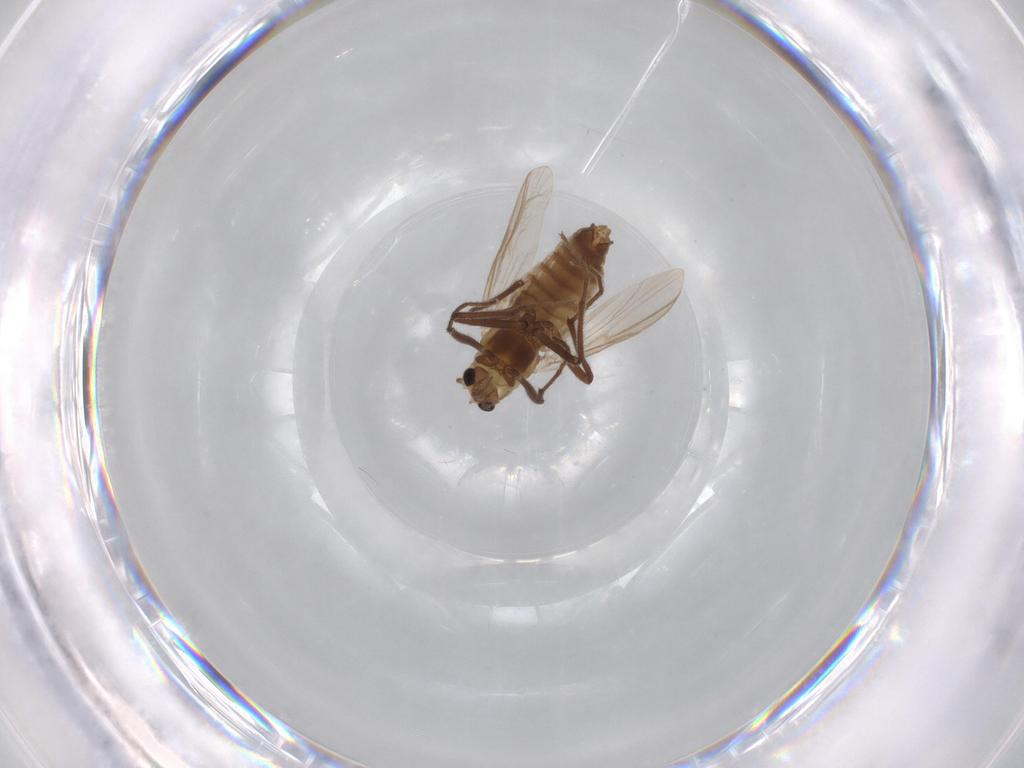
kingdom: Animalia
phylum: Arthropoda
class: Insecta
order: Diptera
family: Chironomidae
